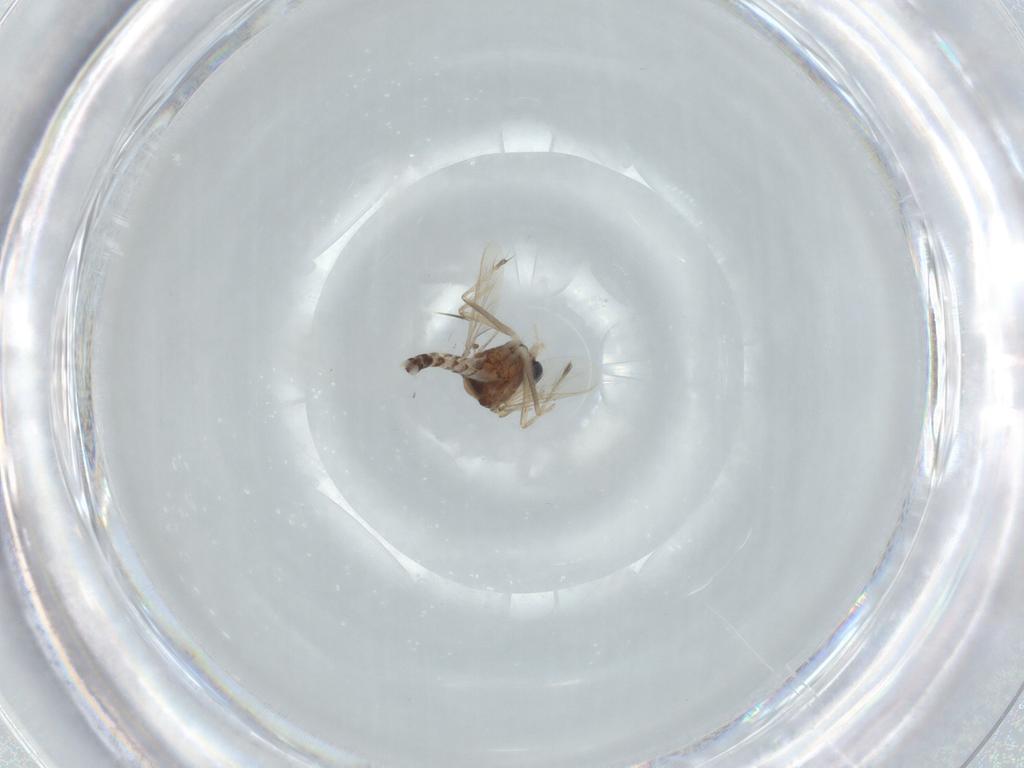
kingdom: Animalia
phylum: Arthropoda
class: Insecta
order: Diptera
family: Chironomidae
